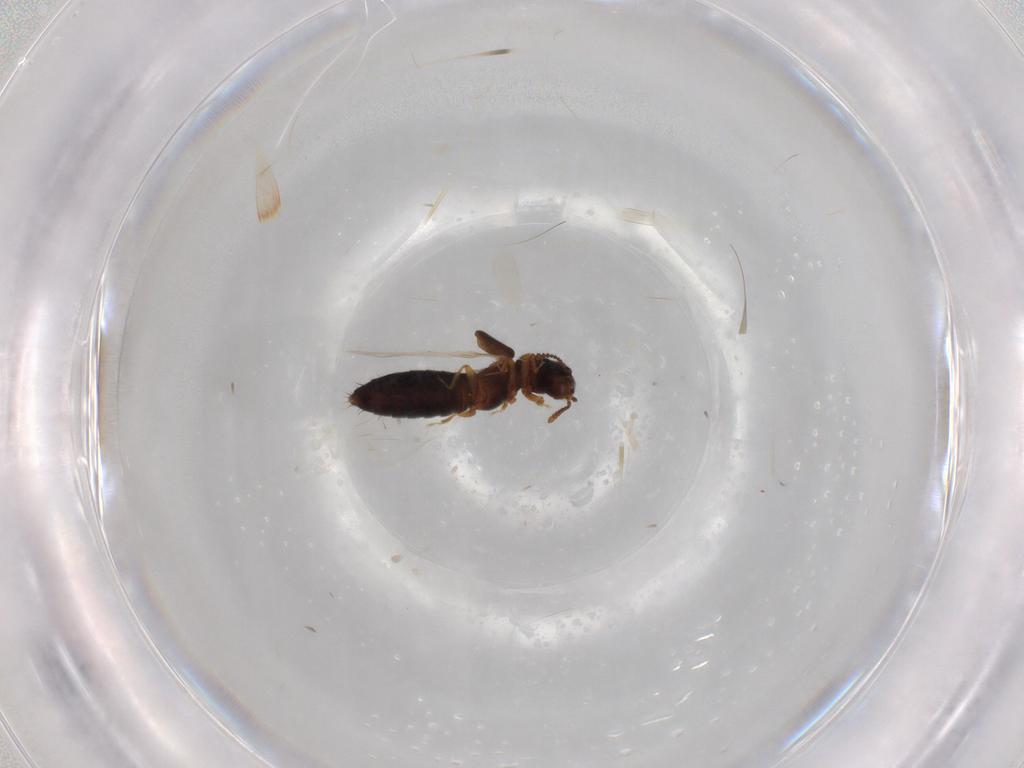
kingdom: Animalia
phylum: Arthropoda
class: Insecta
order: Coleoptera
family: Staphylinidae
